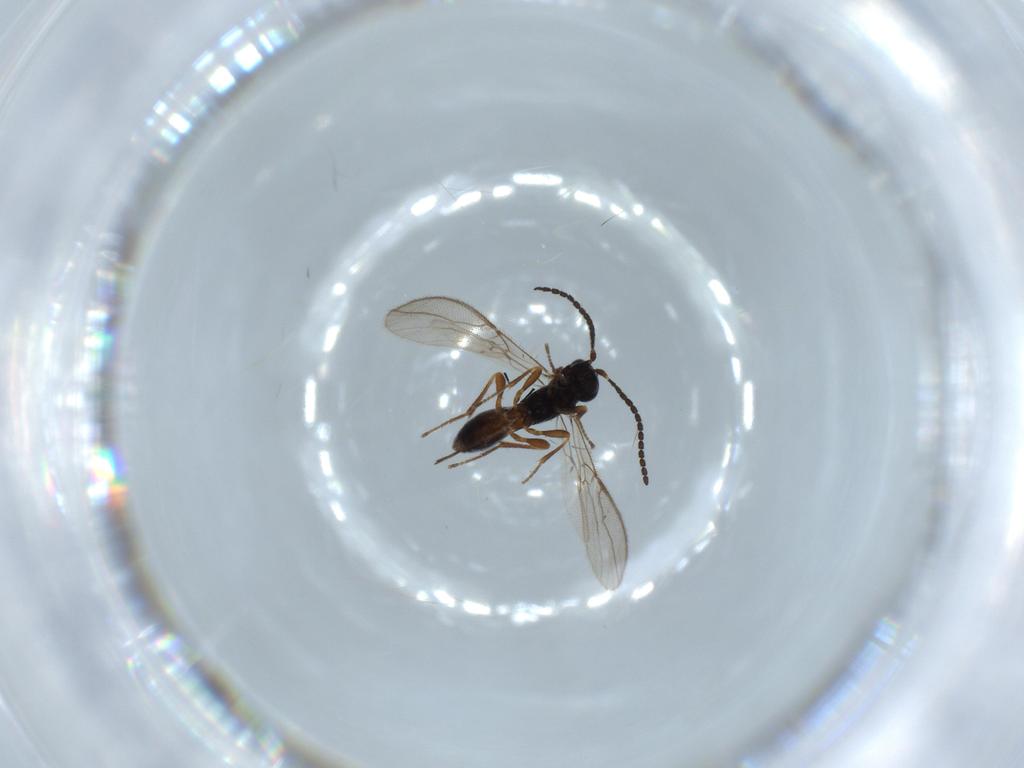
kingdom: Animalia
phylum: Arthropoda
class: Insecta
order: Hymenoptera
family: Braconidae
